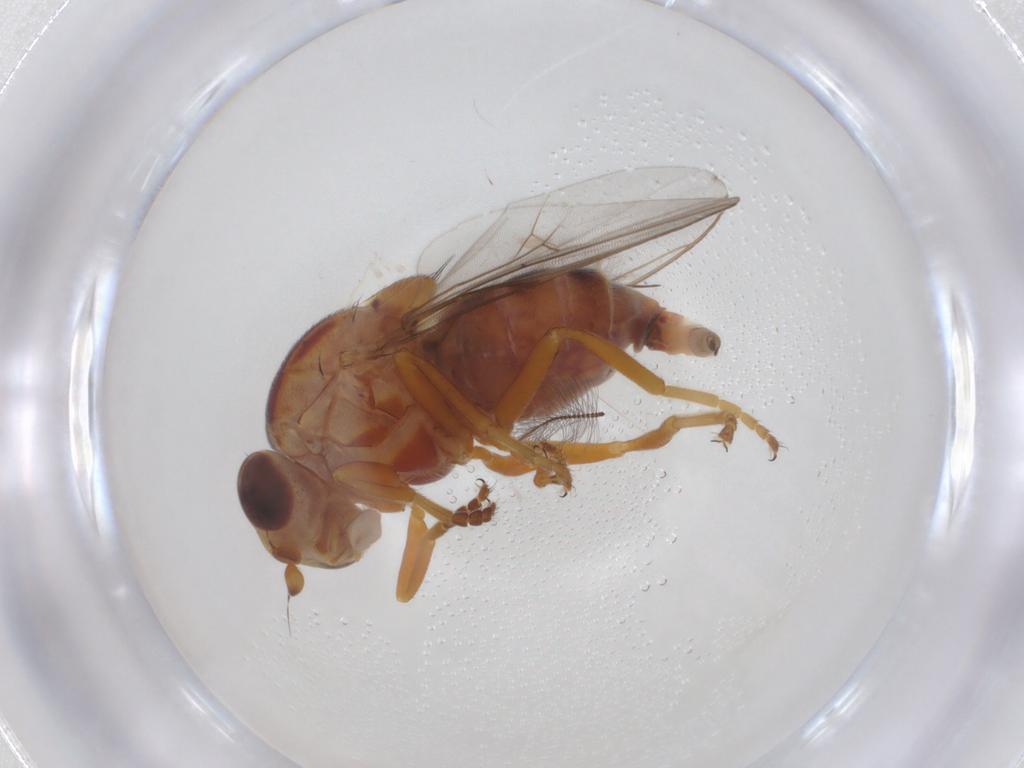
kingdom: Animalia
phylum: Arthropoda
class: Insecta
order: Diptera
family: Chloropidae
